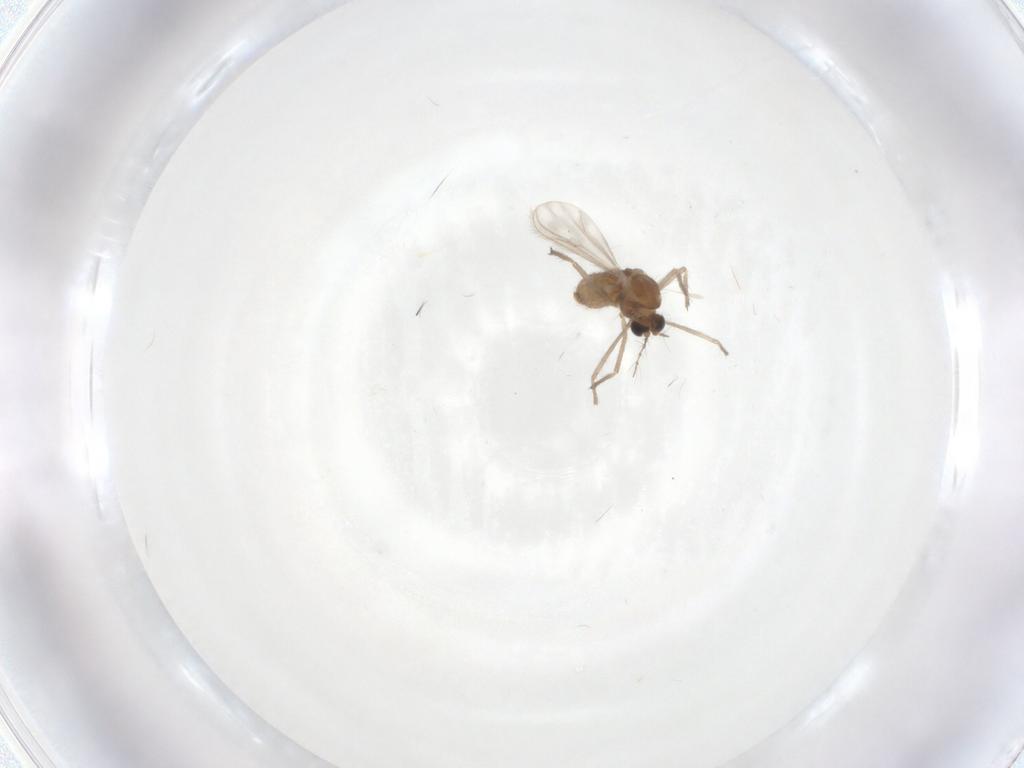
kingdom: Animalia
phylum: Arthropoda
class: Insecta
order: Diptera
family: Chironomidae
